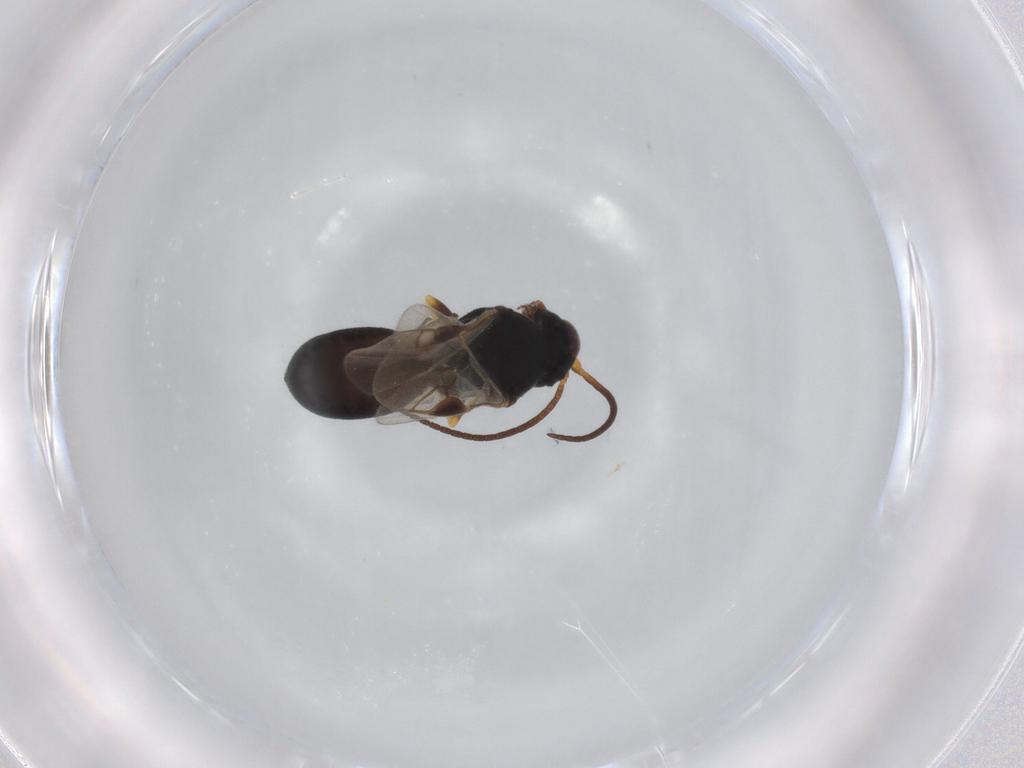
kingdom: Animalia
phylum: Arthropoda
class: Insecta
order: Hymenoptera
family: Braconidae
